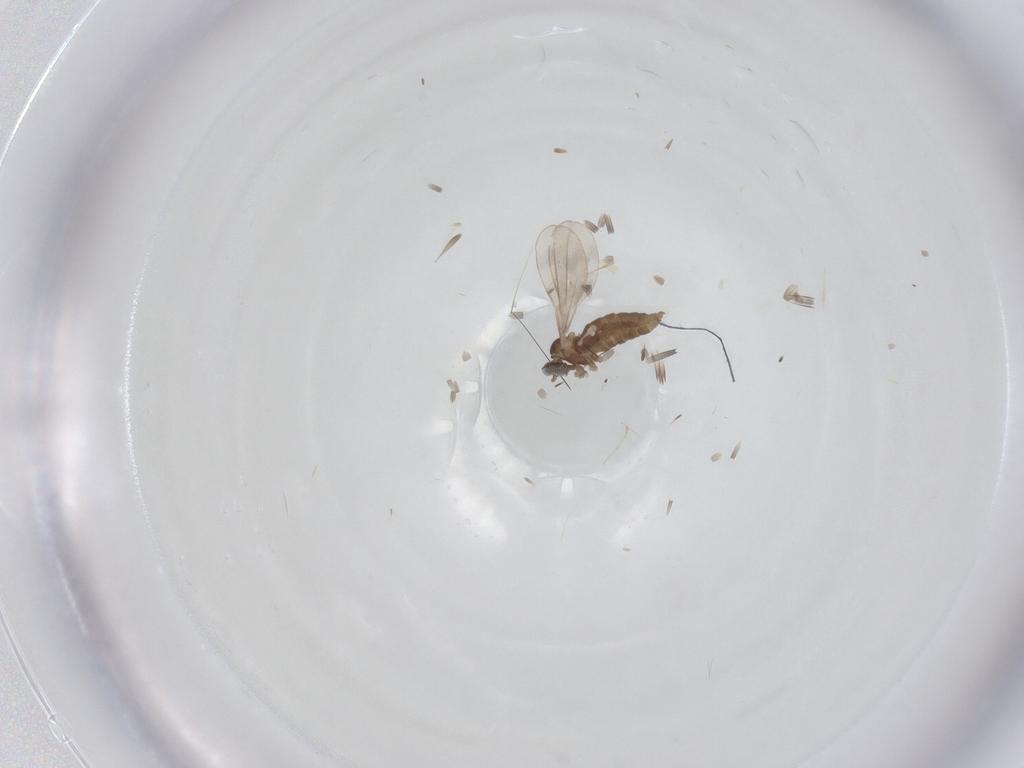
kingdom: Animalia
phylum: Arthropoda
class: Insecta
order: Diptera
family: Cecidomyiidae
